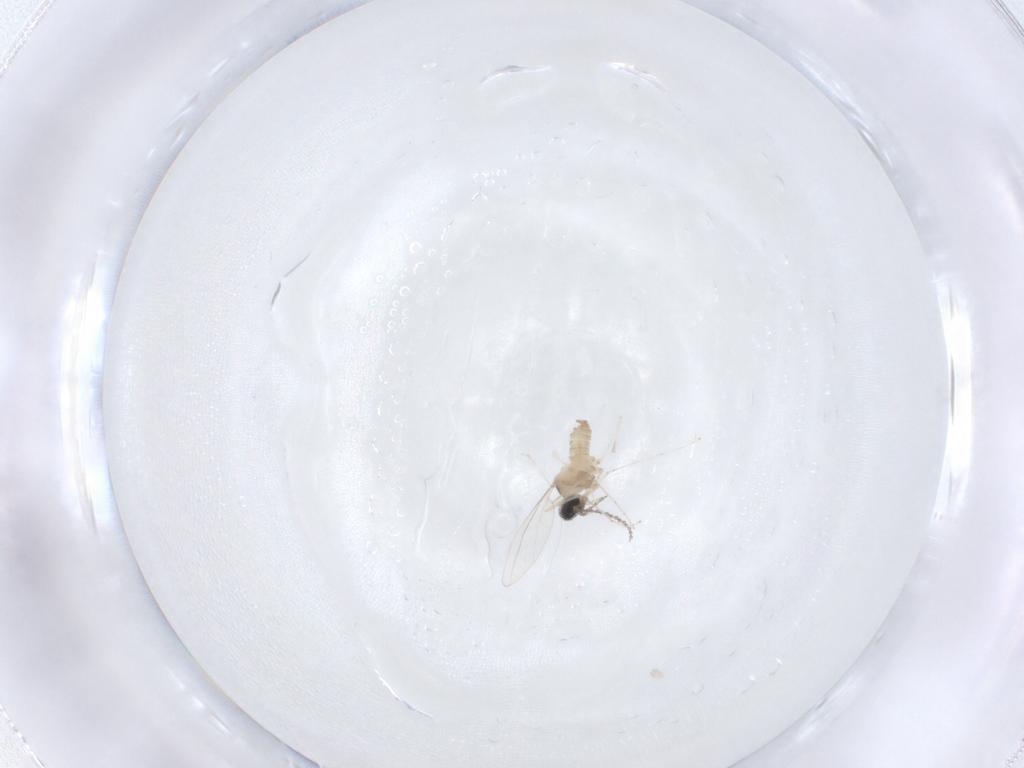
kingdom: Animalia
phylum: Arthropoda
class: Insecta
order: Diptera
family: Cecidomyiidae
